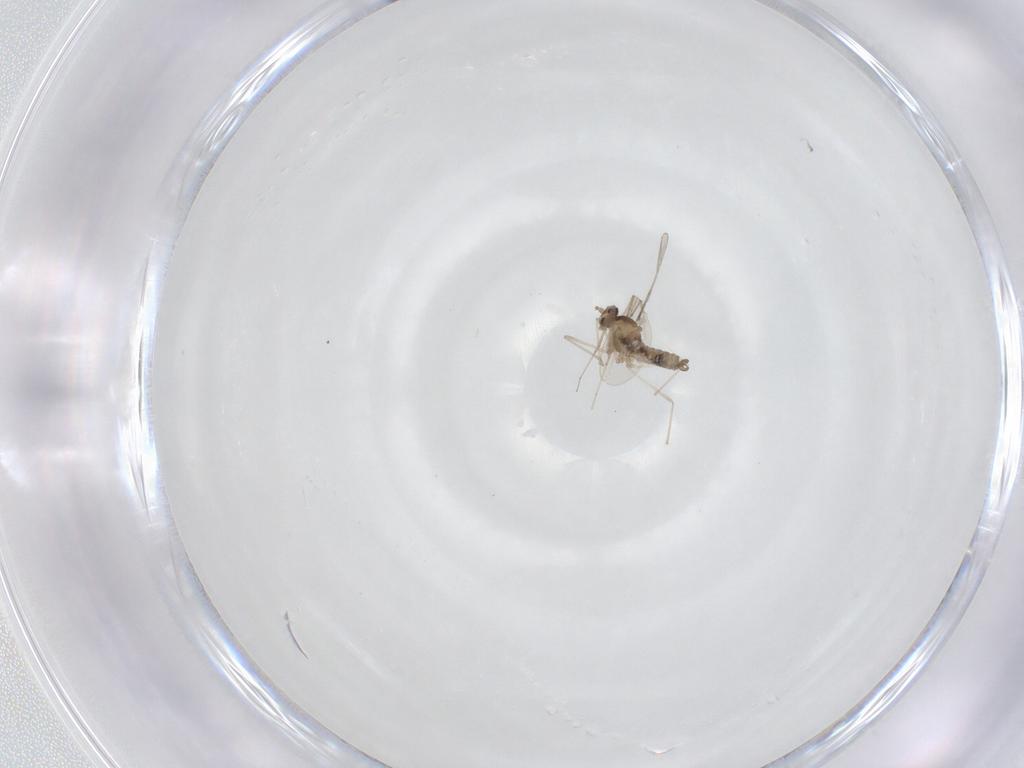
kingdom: Animalia
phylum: Arthropoda
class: Insecta
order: Diptera
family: Cecidomyiidae
